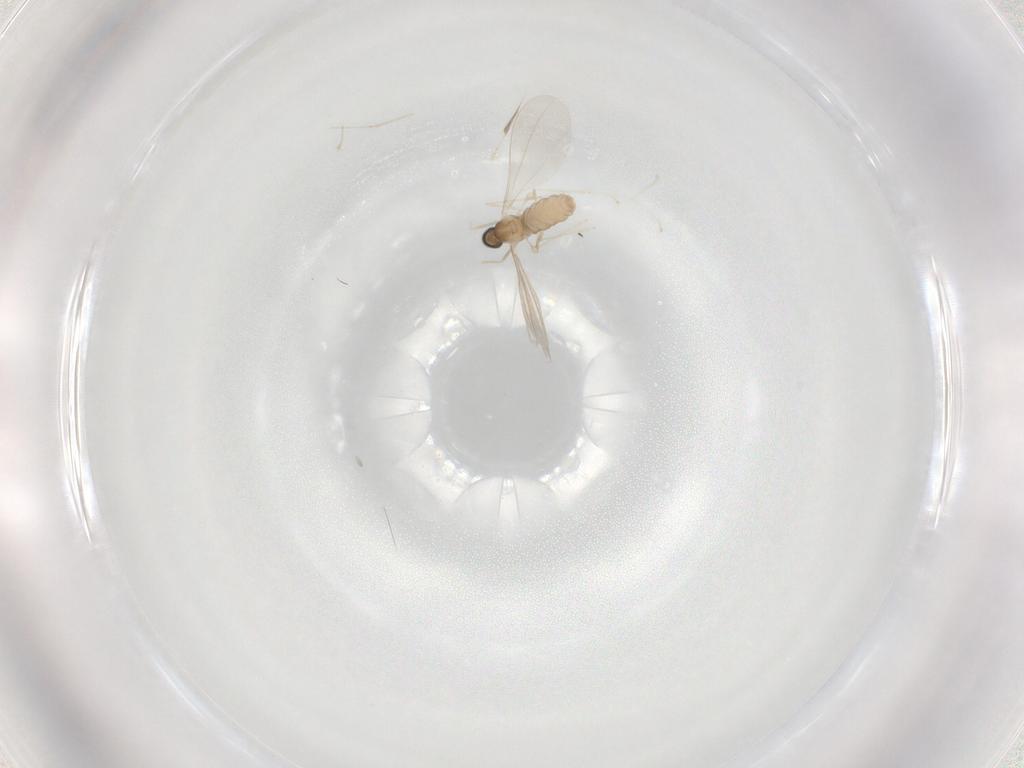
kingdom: Animalia
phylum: Arthropoda
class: Insecta
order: Diptera
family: Cecidomyiidae
